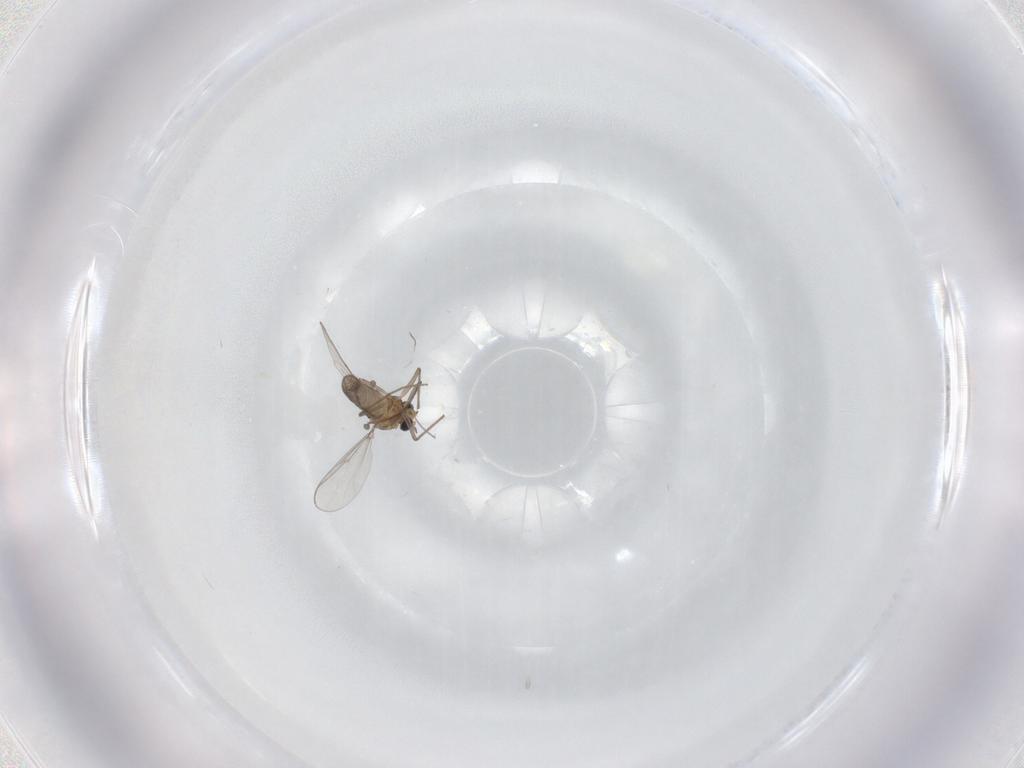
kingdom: Animalia
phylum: Arthropoda
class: Insecta
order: Diptera
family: Chironomidae
